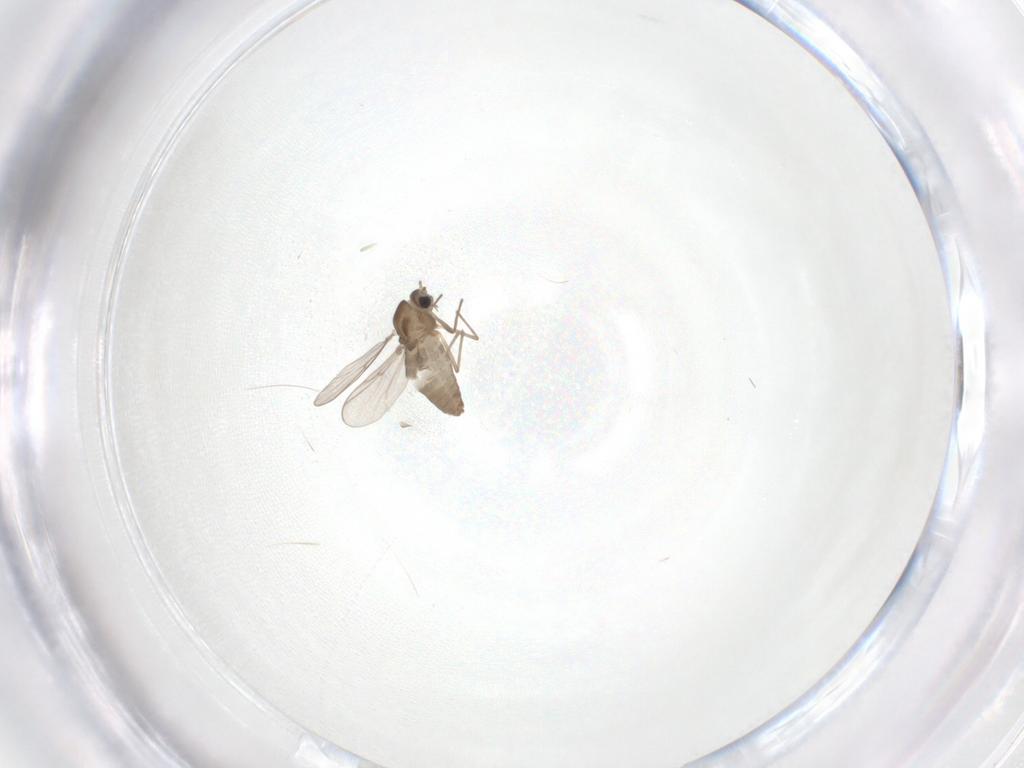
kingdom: Animalia
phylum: Arthropoda
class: Insecta
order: Diptera
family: Chironomidae
